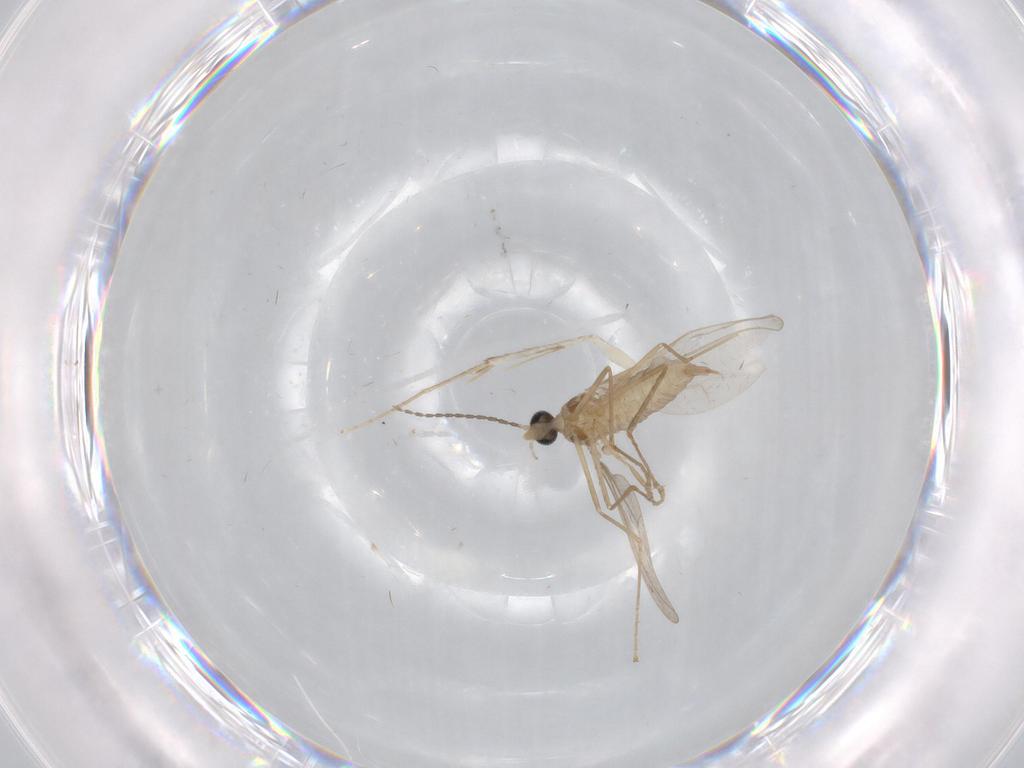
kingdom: Animalia
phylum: Arthropoda
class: Insecta
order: Diptera
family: Cecidomyiidae
